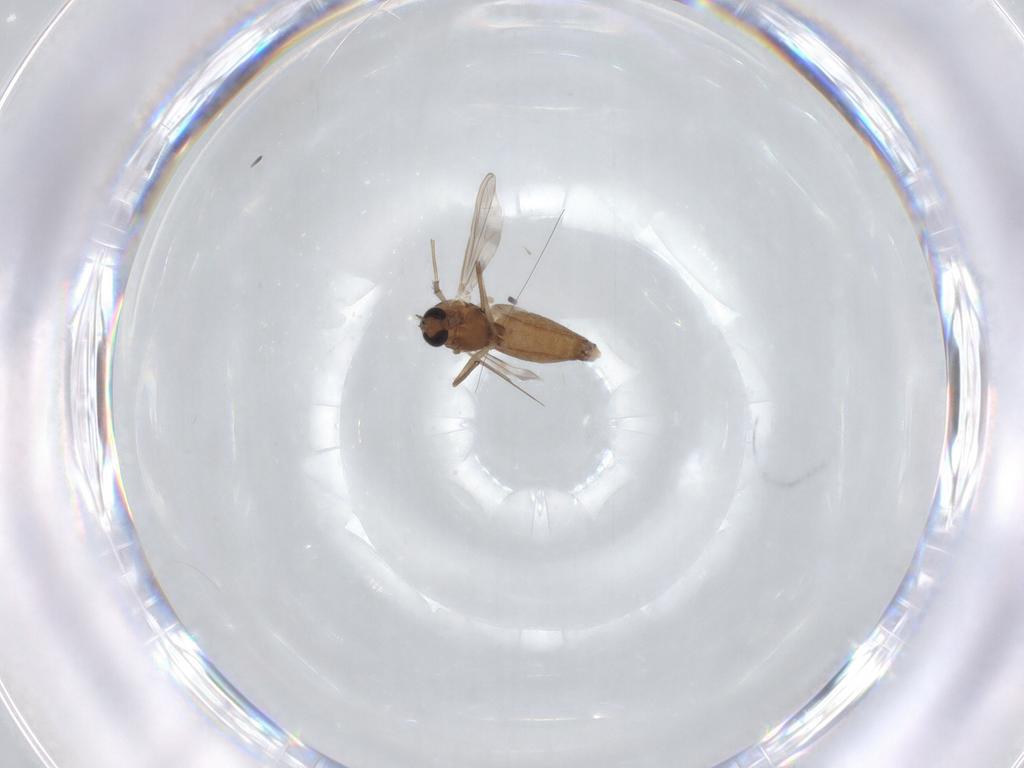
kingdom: Animalia
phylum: Arthropoda
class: Insecta
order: Diptera
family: Chironomidae
